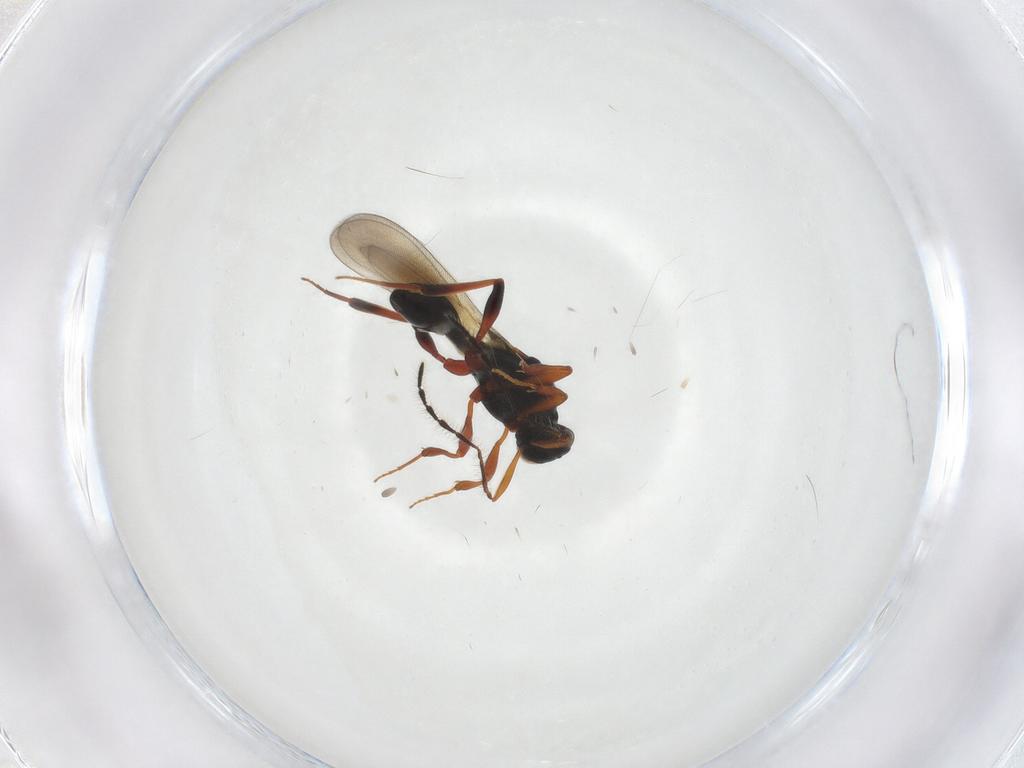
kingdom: Animalia
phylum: Arthropoda
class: Insecta
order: Hymenoptera
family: Platygastridae
